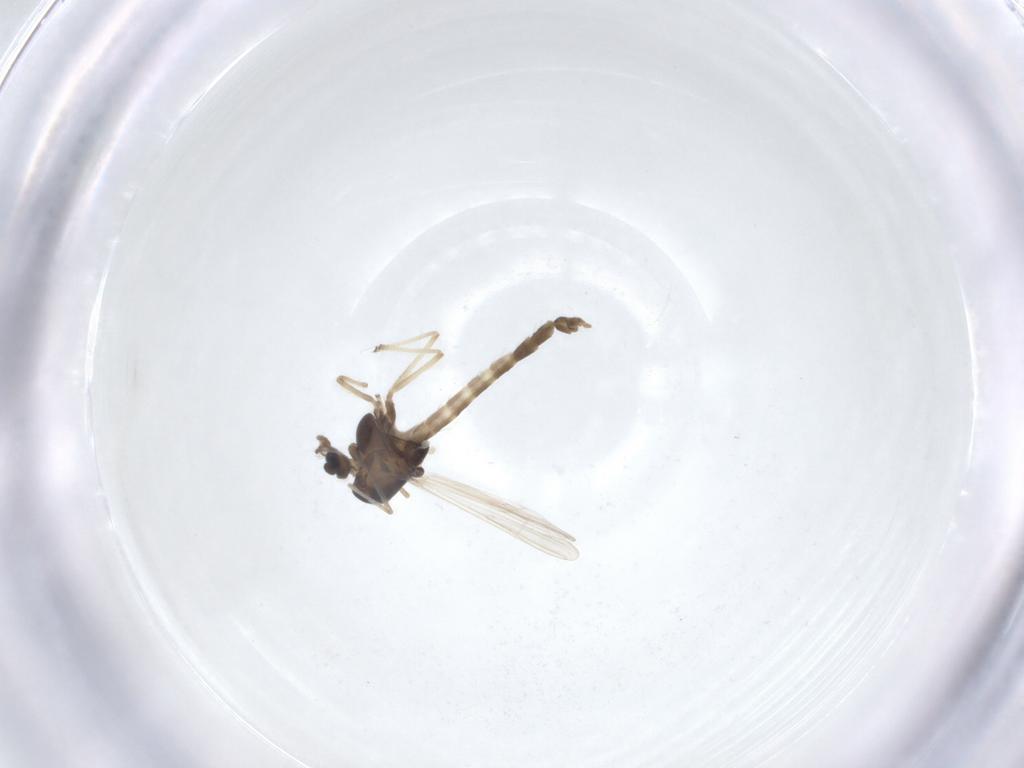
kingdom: Animalia
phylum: Arthropoda
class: Insecta
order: Diptera
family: Chironomidae
